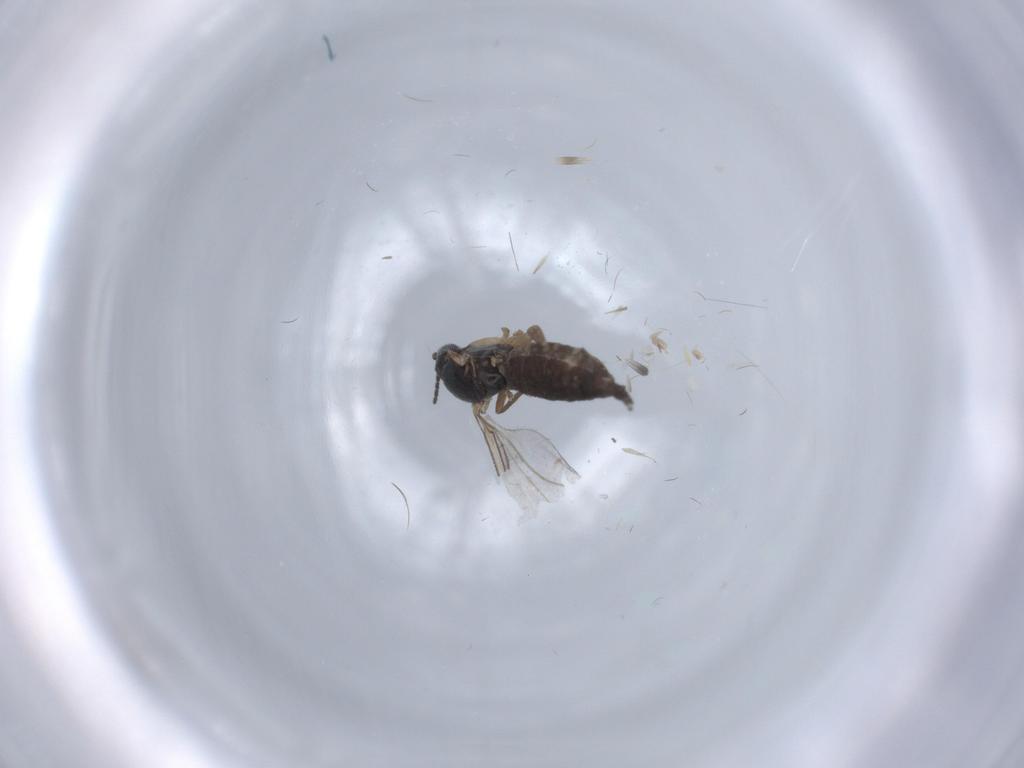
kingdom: Animalia
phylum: Arthropoda
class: Insecta
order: Diptera
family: Sciaridae
